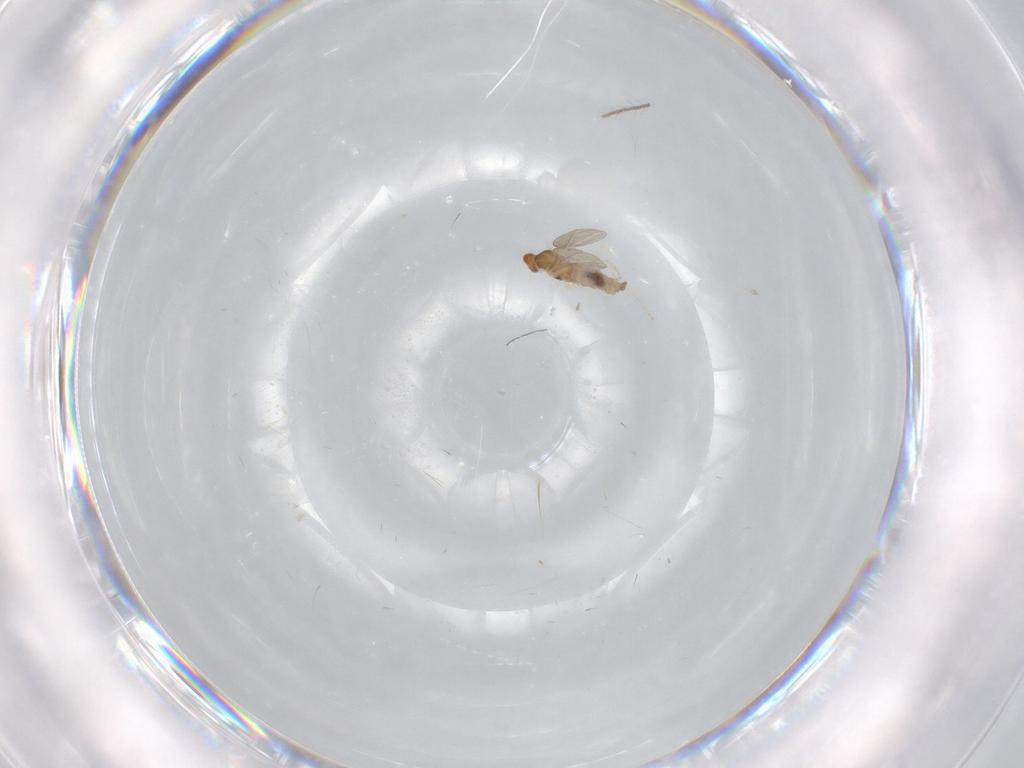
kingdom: Animalia
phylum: Arthropoda
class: Insecta
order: Diptera
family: Cecidomyiidae
